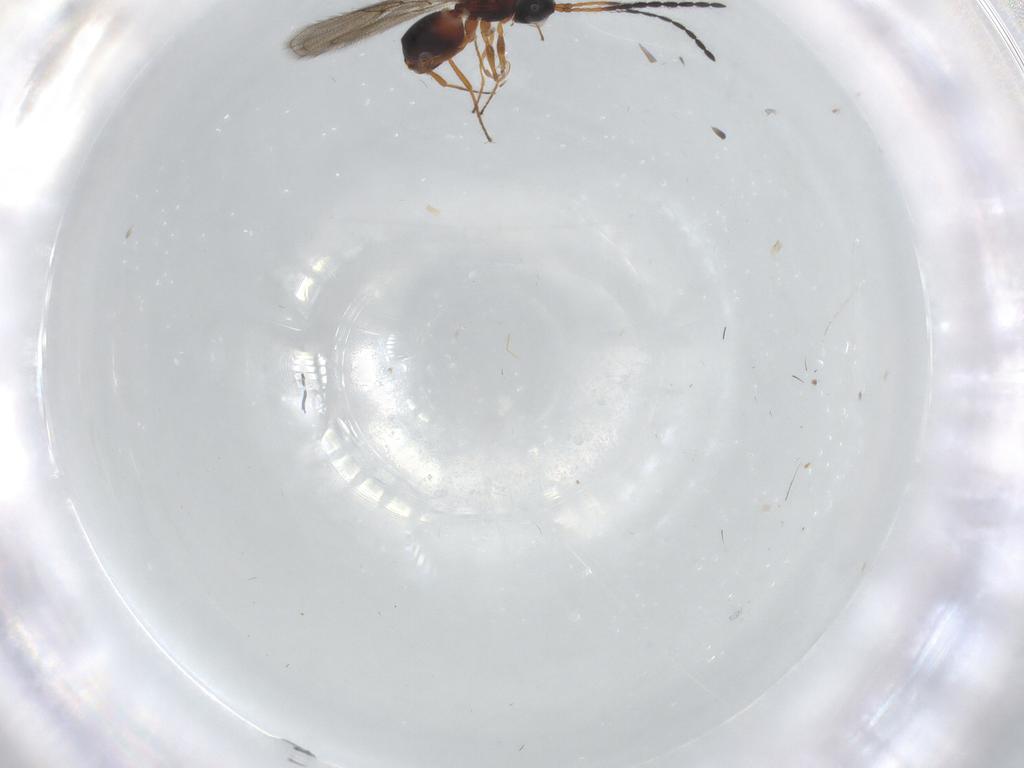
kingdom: Animalia
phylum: Arthropoda
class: Insecta
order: Hymenoptera
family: Figitidae
